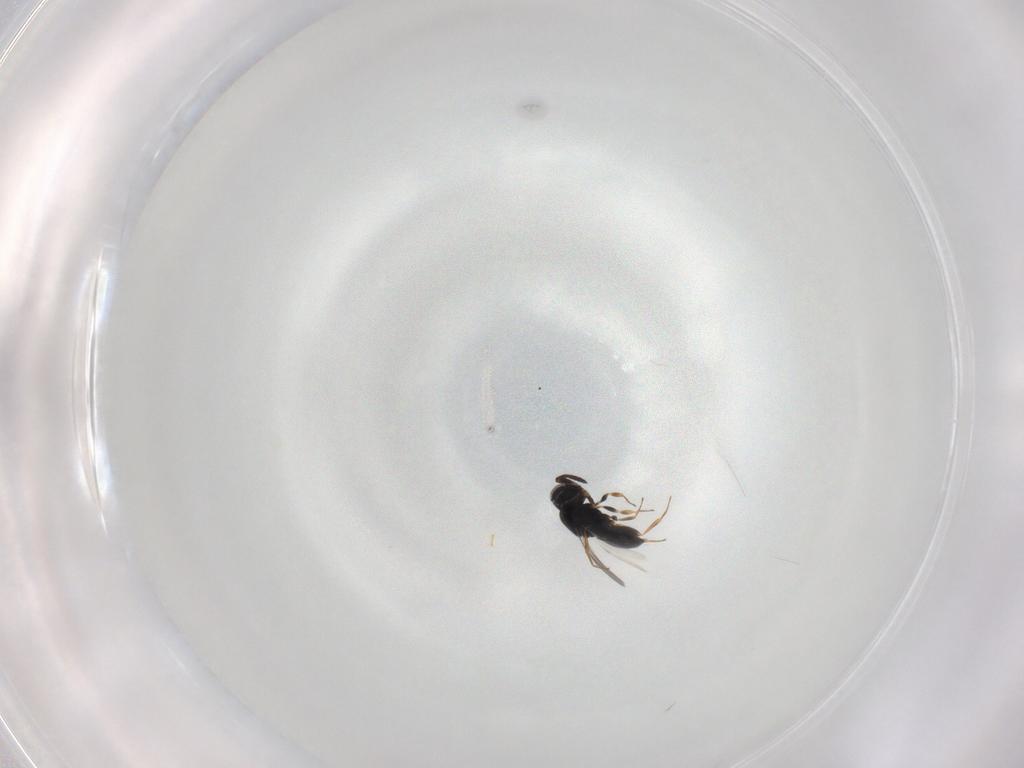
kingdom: Animalia
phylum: Arthropoda
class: Insecta
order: Hymenoptera
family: Scelionidae
